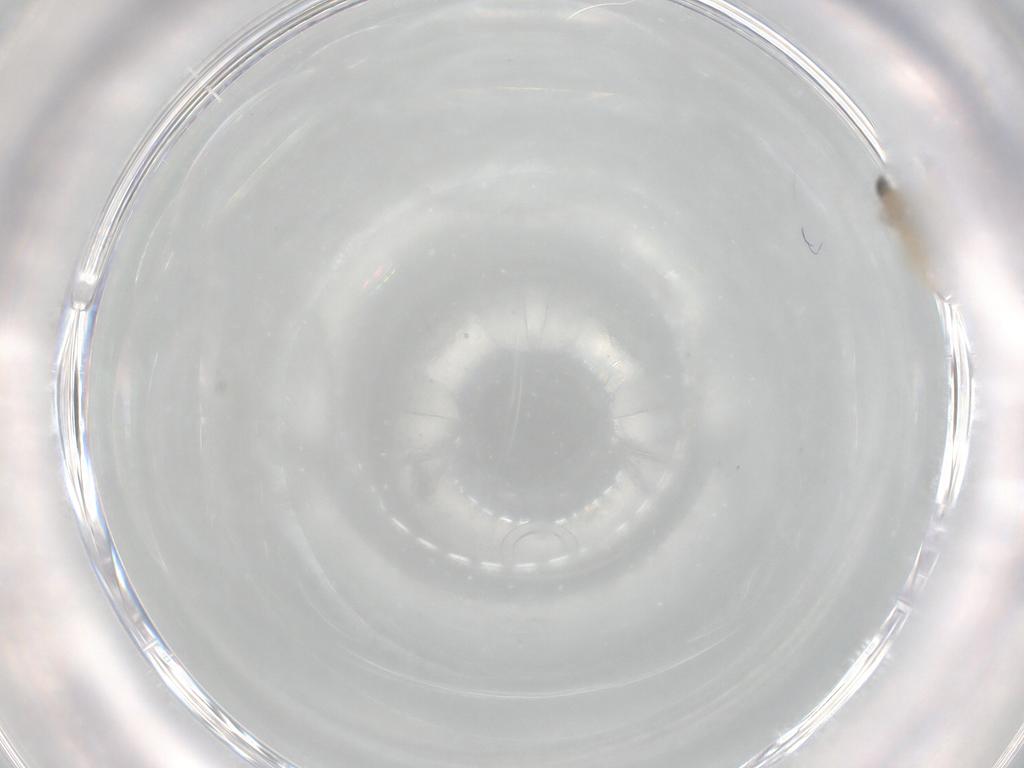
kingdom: Animalia
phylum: Arthropoda
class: Insecta
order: Diptera
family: Cecidomyiidae
